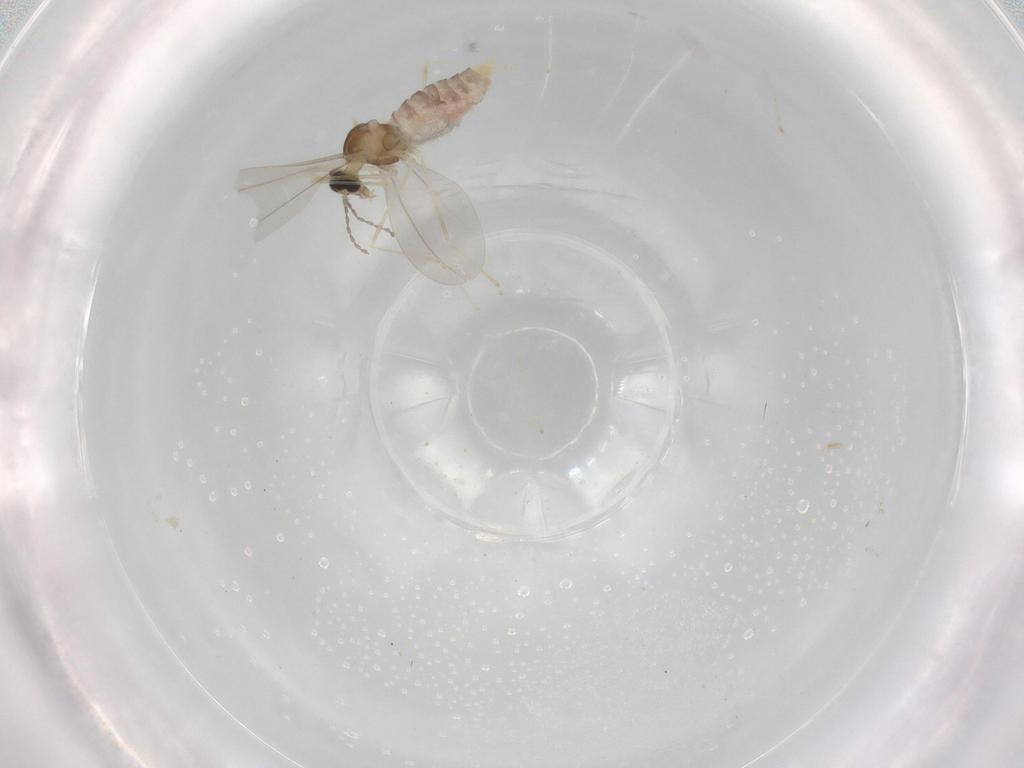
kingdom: Animalia
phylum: Arthropoda
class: Insecta
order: Diptera
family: Cecidomyiidae
